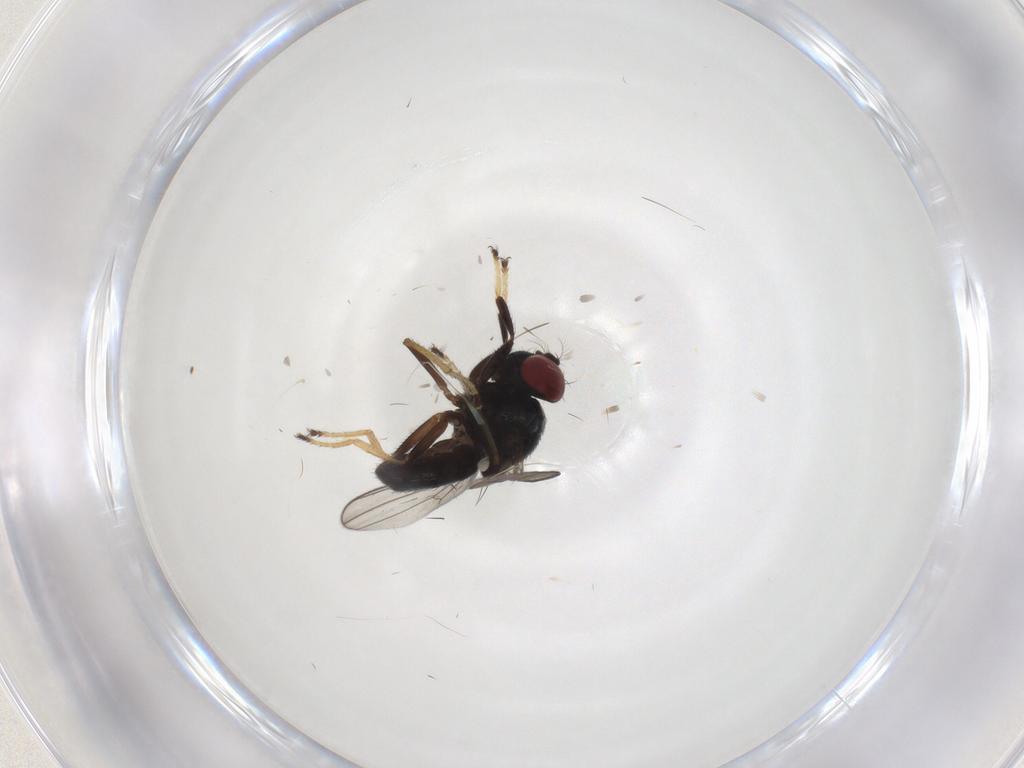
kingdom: Animalia
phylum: Arthropoda
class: Insecta
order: Diptera
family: Ephydridae
